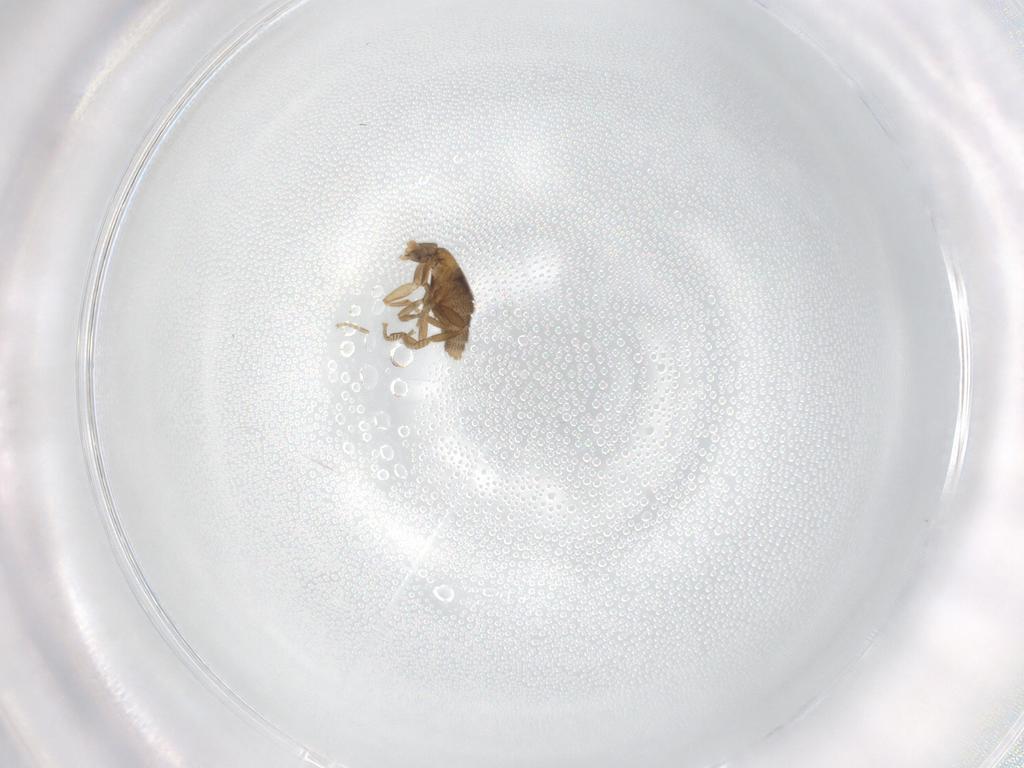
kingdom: Animalia
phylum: Arthropoda
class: Insecta
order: Diptera
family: Phoridae
